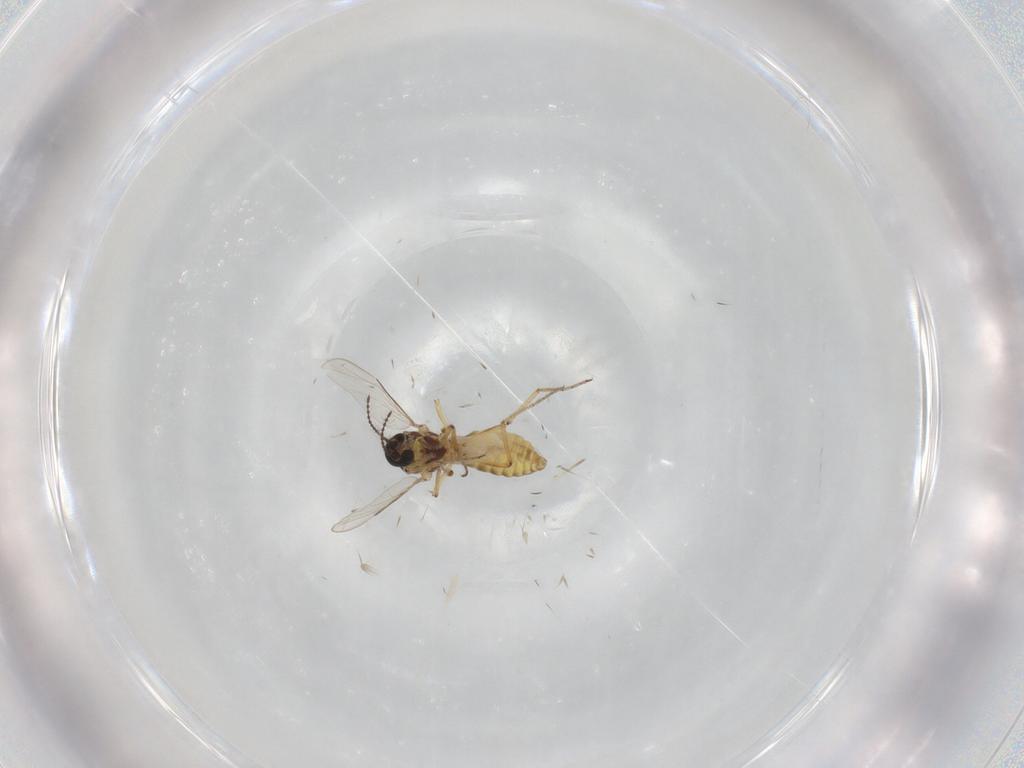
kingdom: Animalia
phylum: Arthropoda
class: Insecta
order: Diptera
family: Ceratopogonidae
